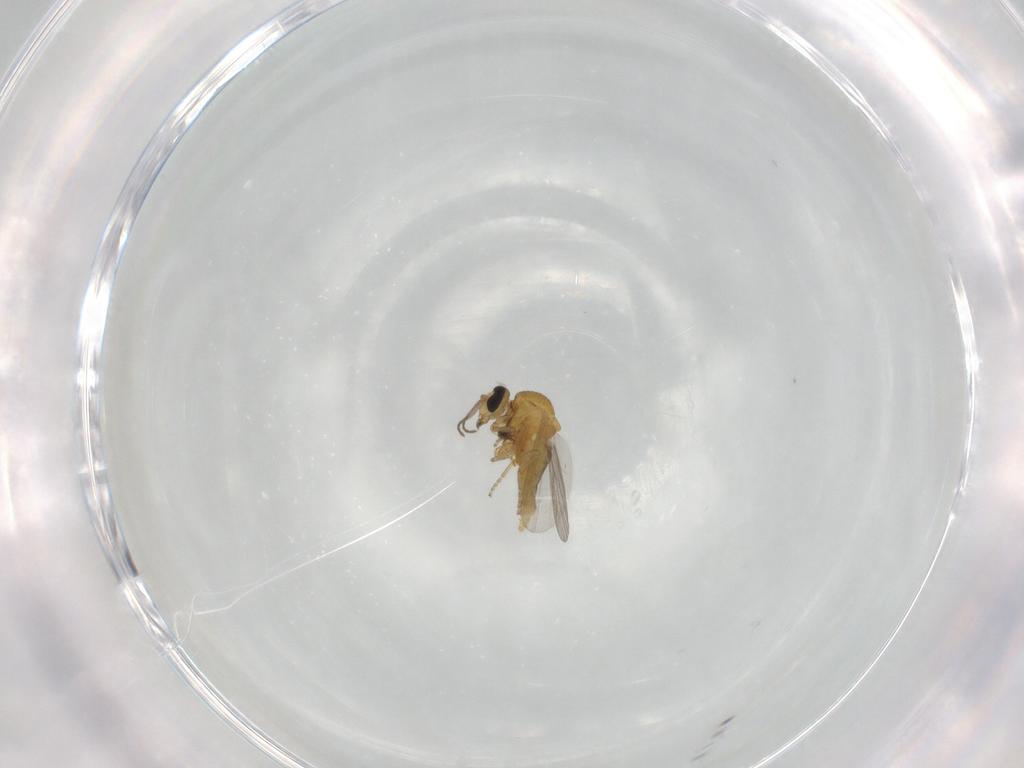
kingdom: Animalia
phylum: Arthropoda
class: Insecta
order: Diptera
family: Ceratopogonidae
